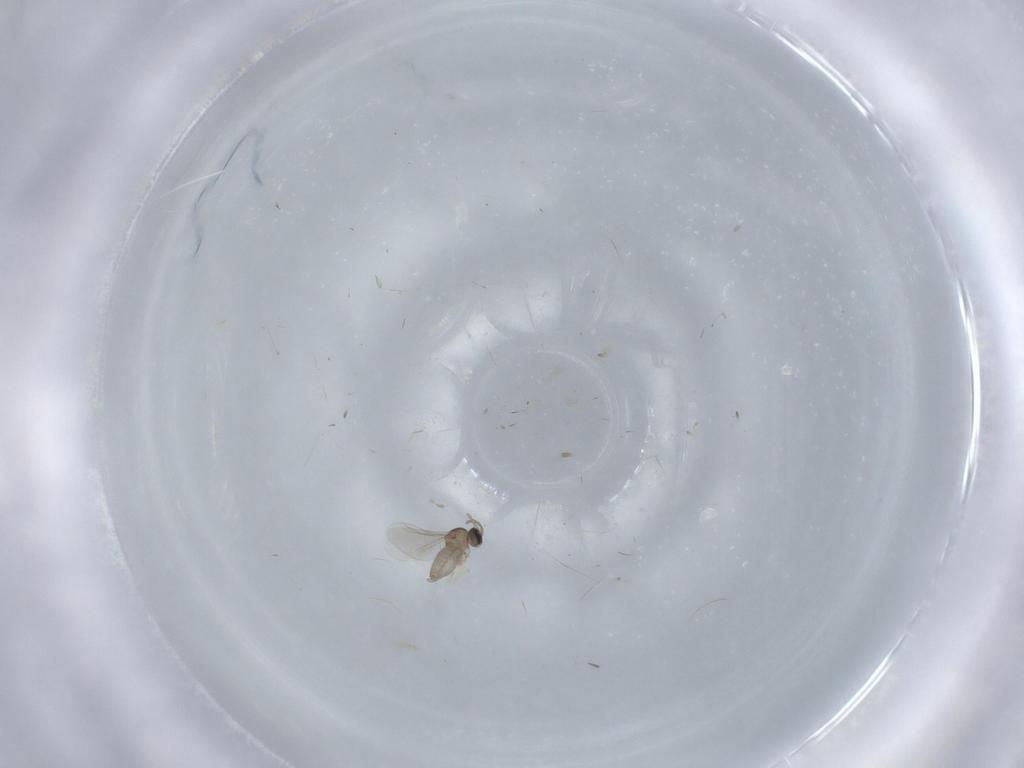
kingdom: Animalia
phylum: Arthropoda
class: Insecta
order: Diptera
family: Cecidomyiidae
